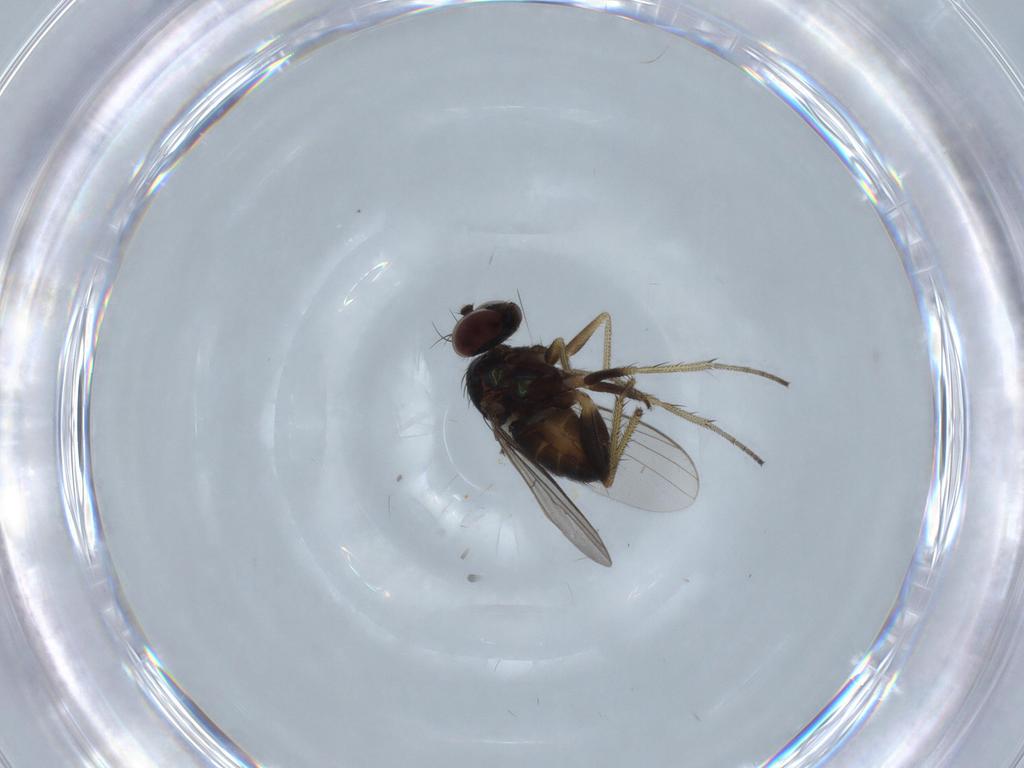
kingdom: Animalia
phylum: Arthropoda
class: Insecta
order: Diptera
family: Dolichopodidae
